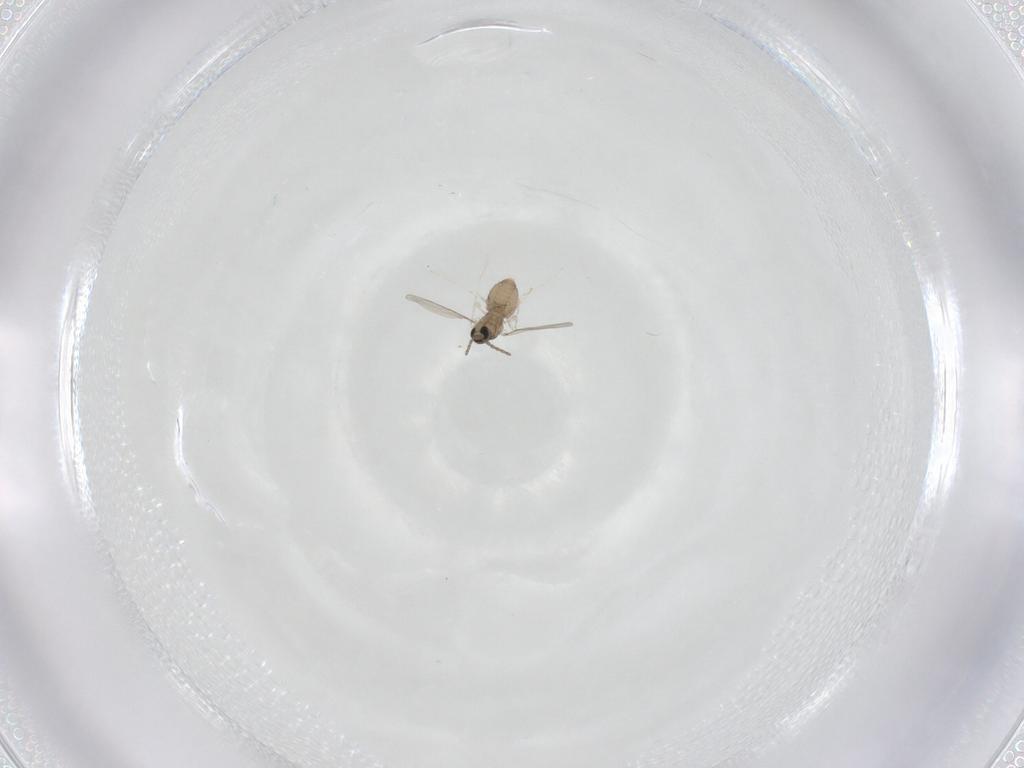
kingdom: Animalia
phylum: Arthropoda
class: Insecta
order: Diptera
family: Cecidomyiidae
